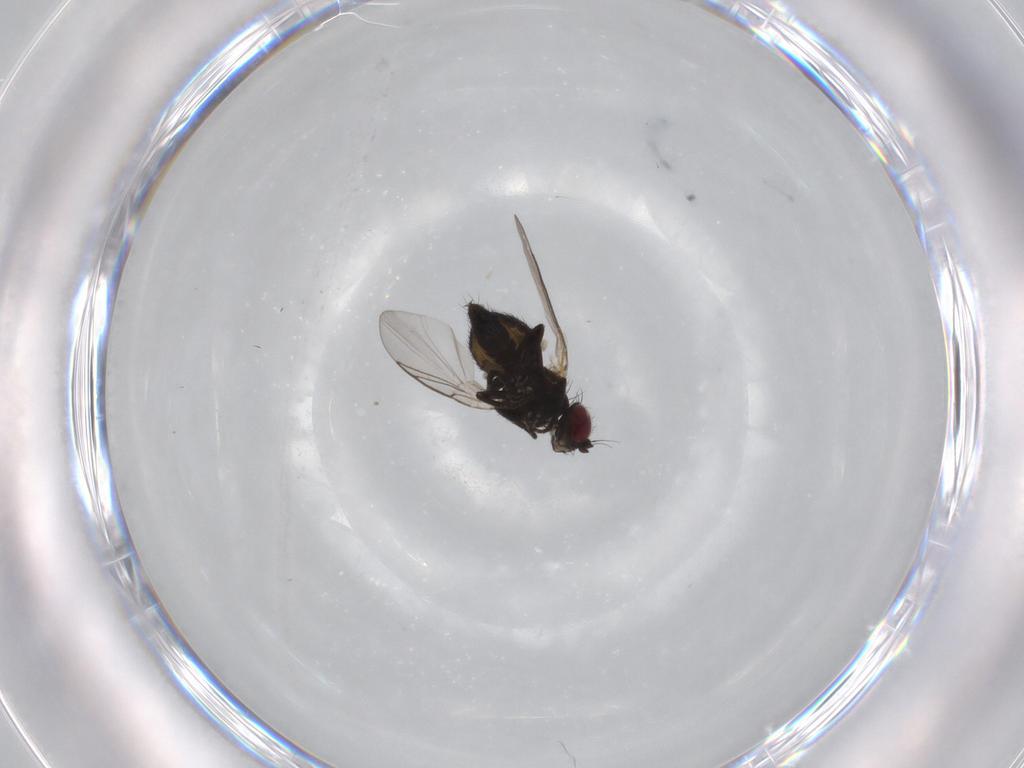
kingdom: Animalia
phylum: Arthropoda
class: Insecta
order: Diptera
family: Agromyzidae
